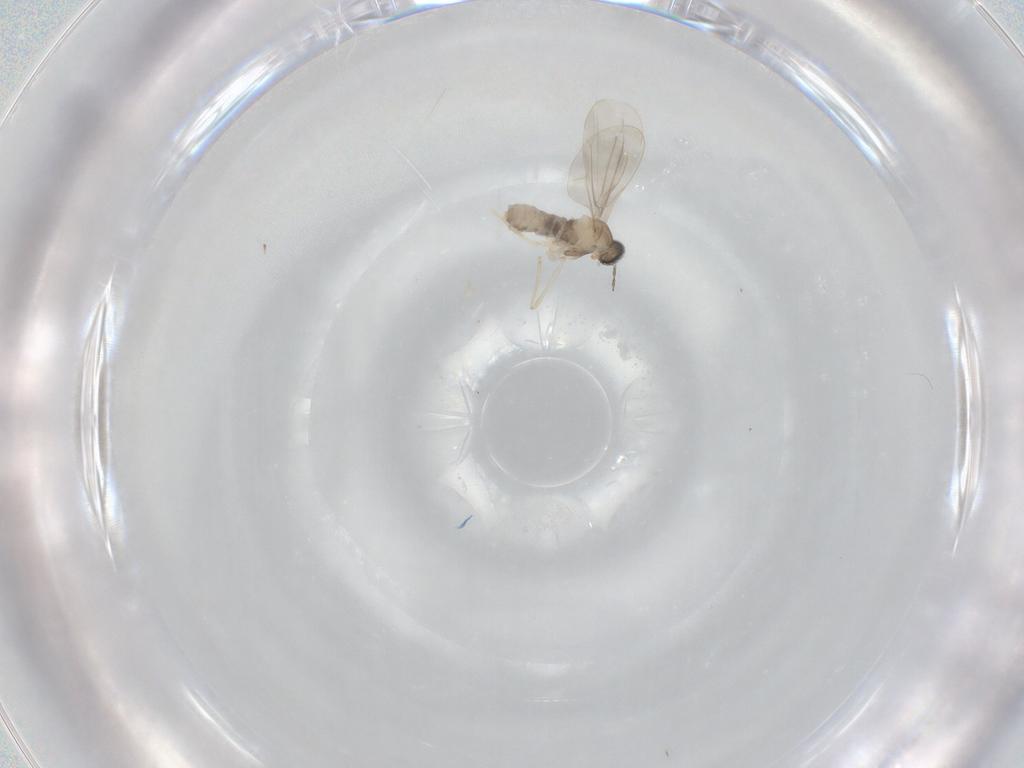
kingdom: Animalia
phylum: Arthropoda
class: Insecta
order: Diptera
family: Cecidomyiidae
